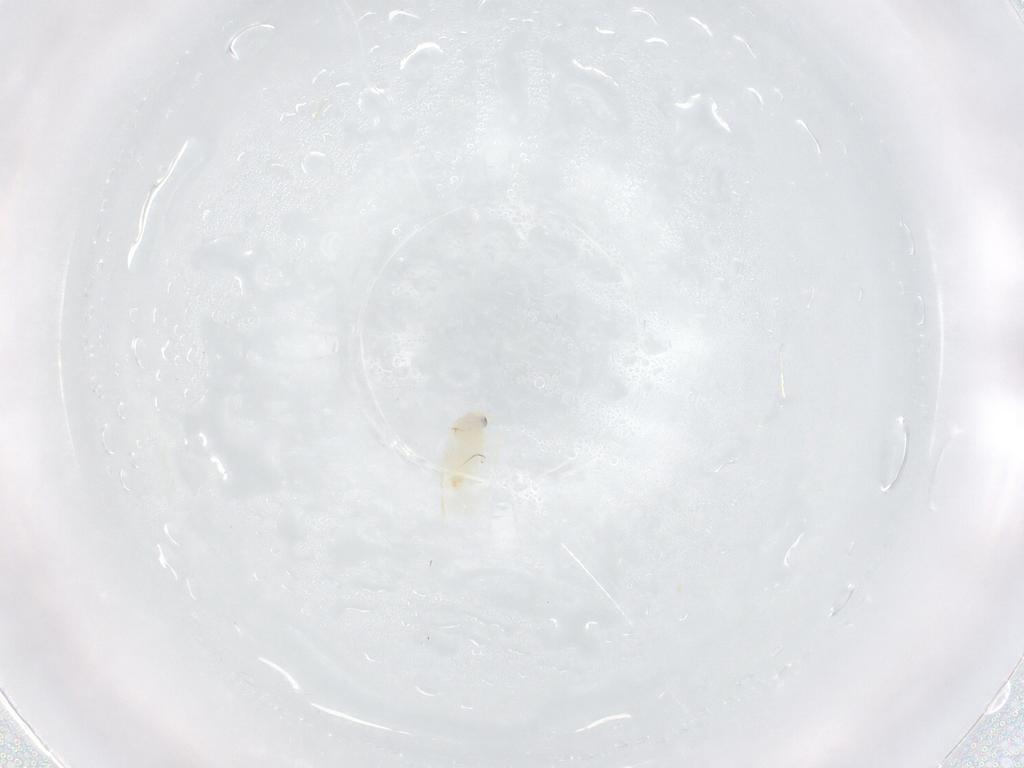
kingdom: Animalia
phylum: Arthropoda
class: Insecta
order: Hemiptera
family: Aleyrodidae
